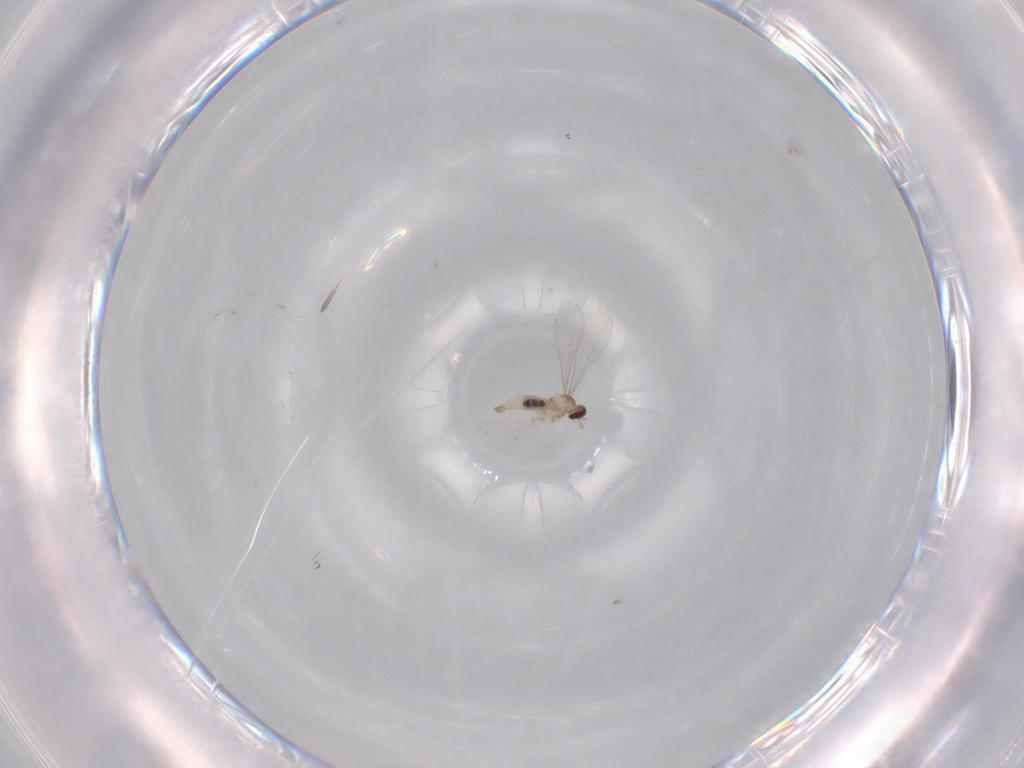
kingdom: Animalia
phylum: Arthropoda
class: Insecta
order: Diptera
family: Cecidomyiidae
